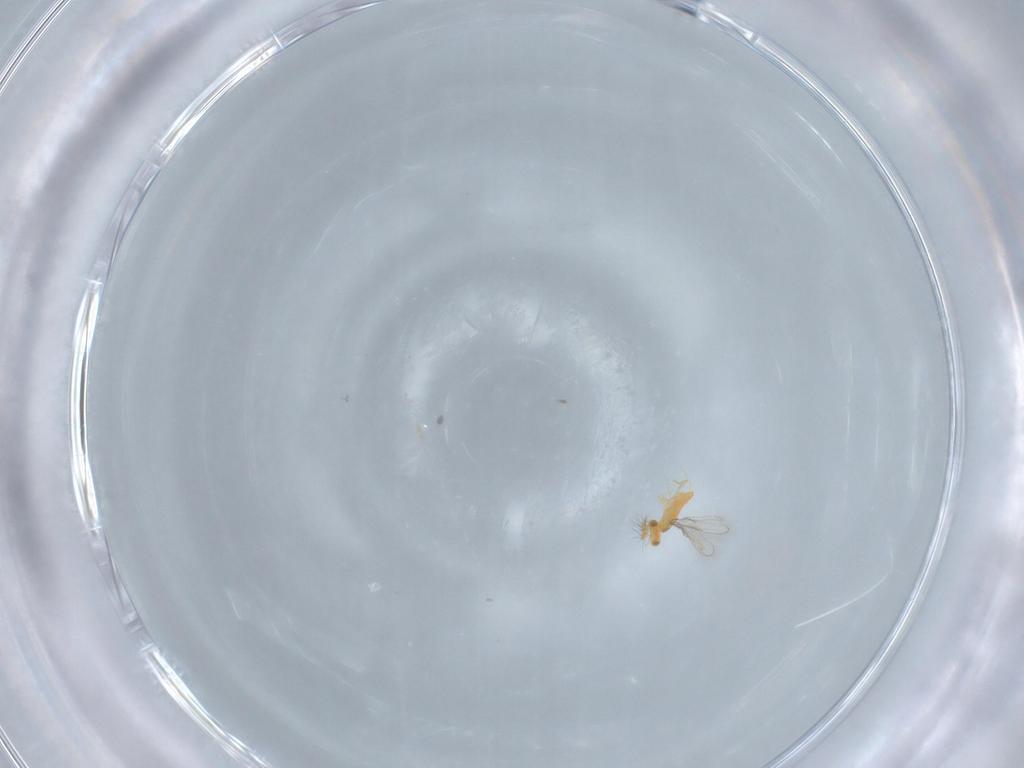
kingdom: Animalia
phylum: Arthropoda
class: Insecta
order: Hymenoptera
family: Aphelinidae
